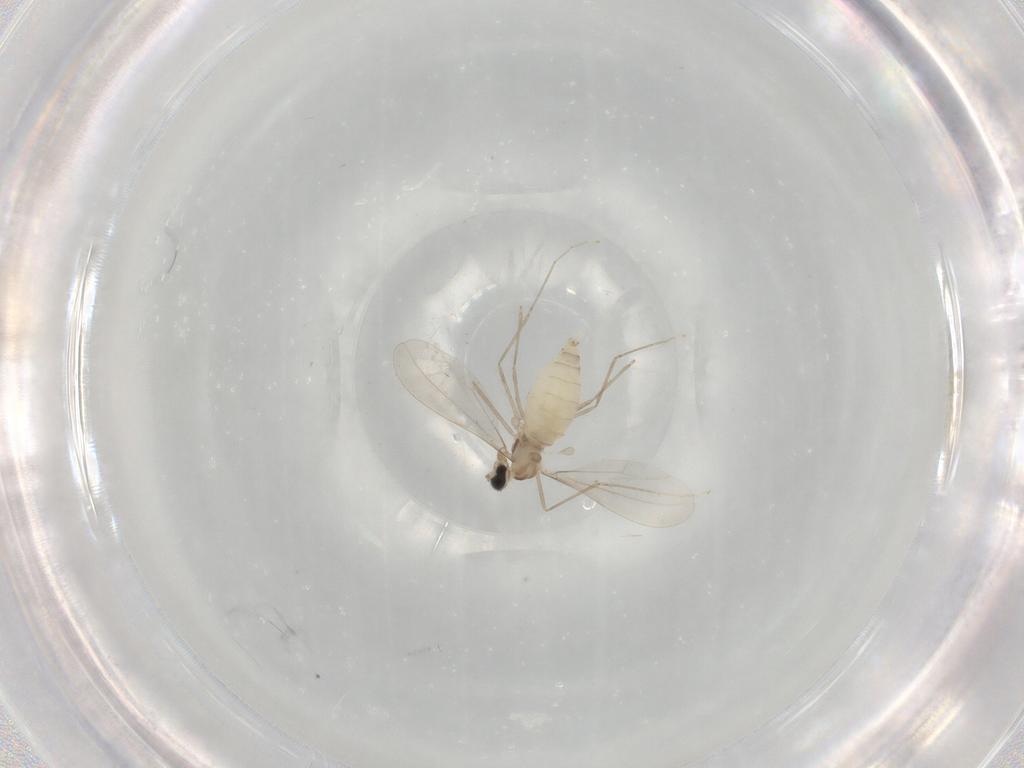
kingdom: Animalia
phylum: Arthropoda
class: Insecta
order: Diptera
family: Cecidomyiidae
